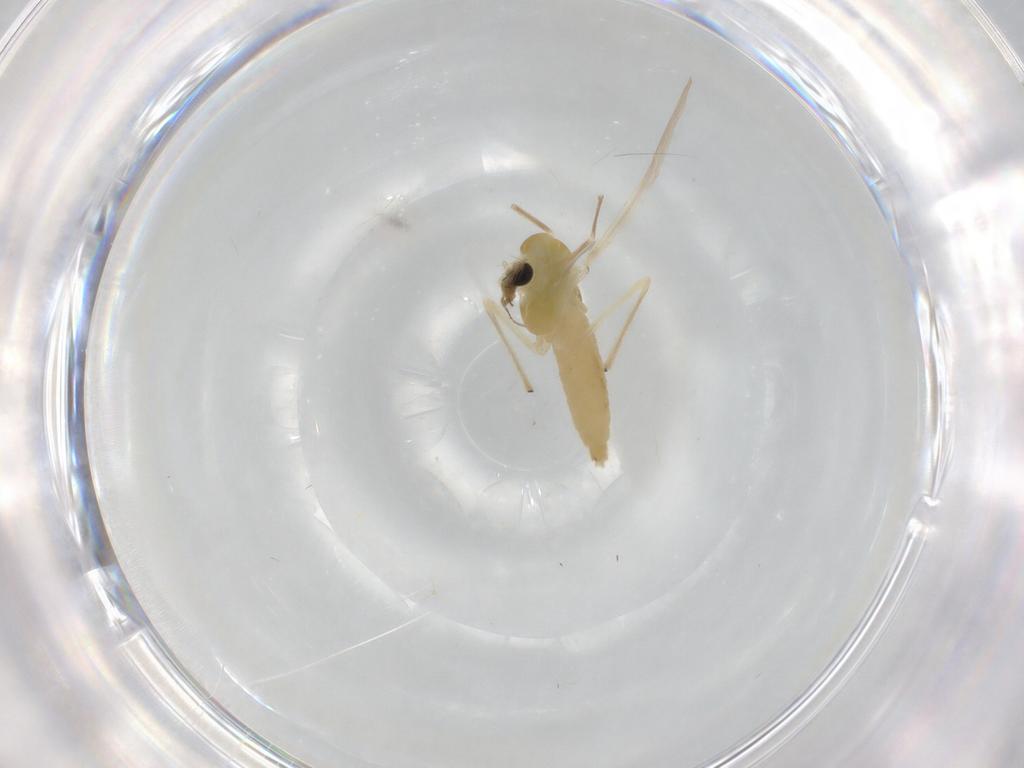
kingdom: Animalia
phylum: Arthropoda
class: Insecta
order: Diptera
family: Chironomidae
